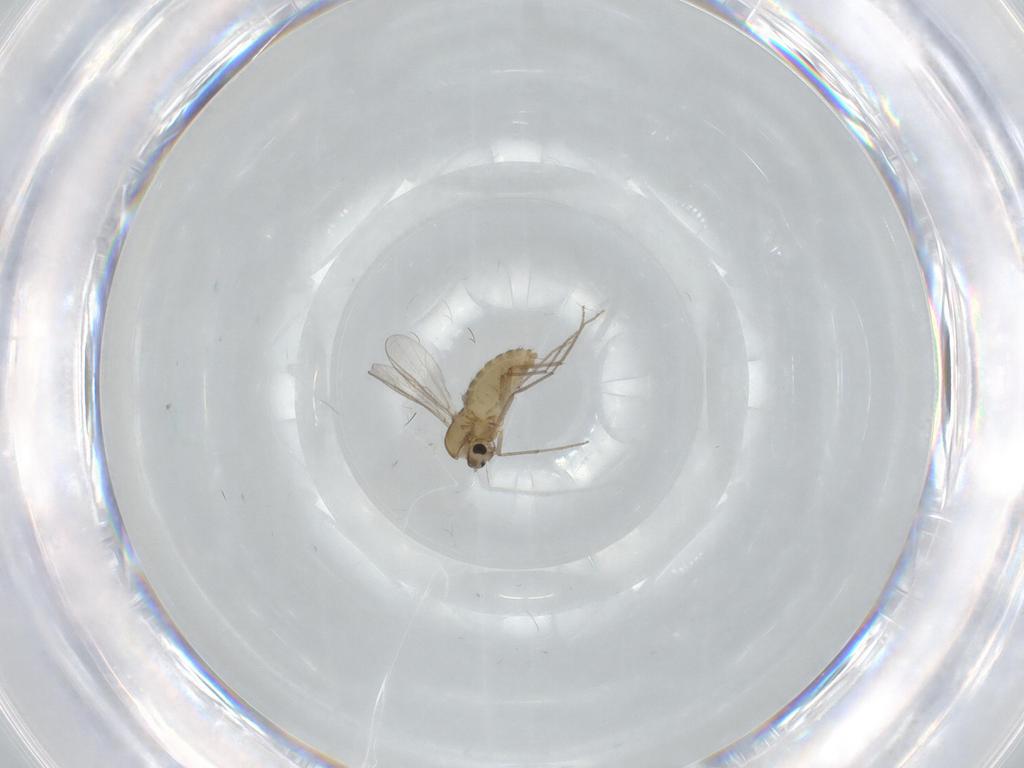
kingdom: Animalia
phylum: Arthropoda
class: Insecta
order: Diptera
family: Chironomidae
